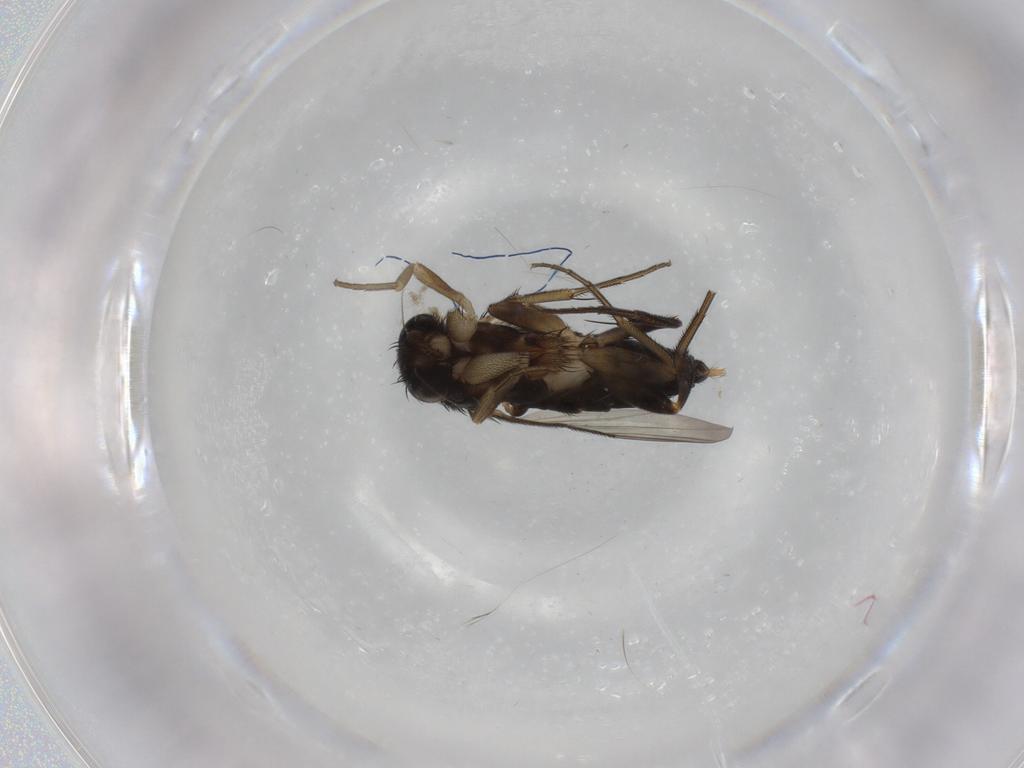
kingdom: Animalia
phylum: Arthropoda
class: Insecta
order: Diptera
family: Phoridae
